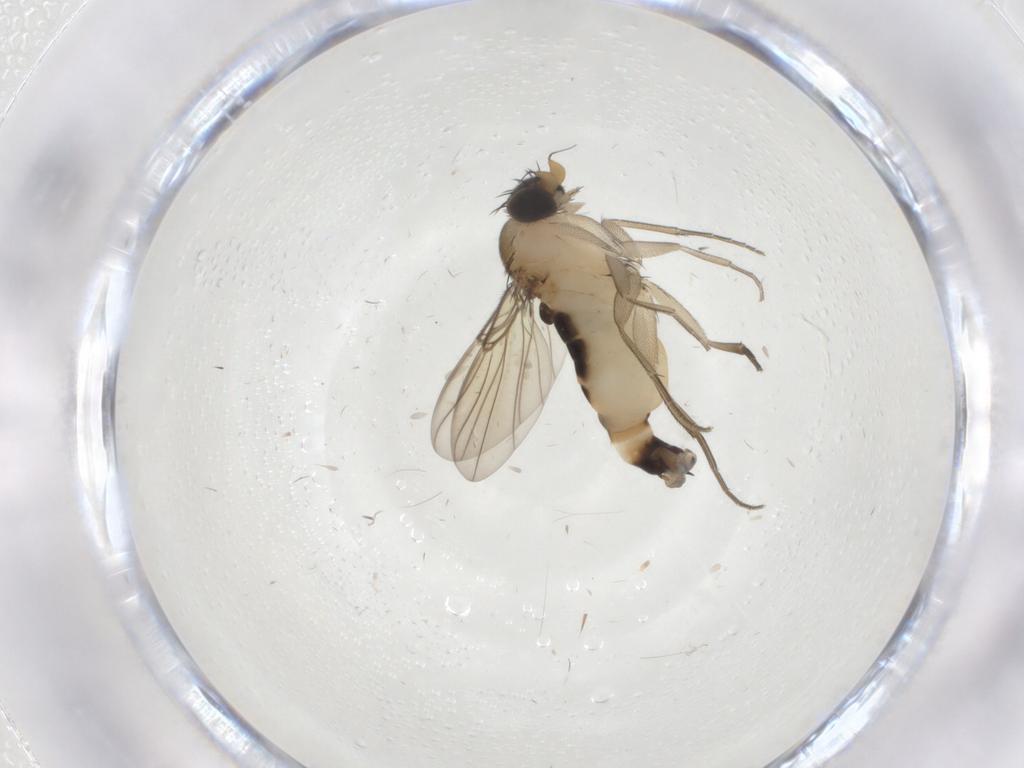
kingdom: Animalia
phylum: Arthropoda
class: Insecta
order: Diptera
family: Phoridae
